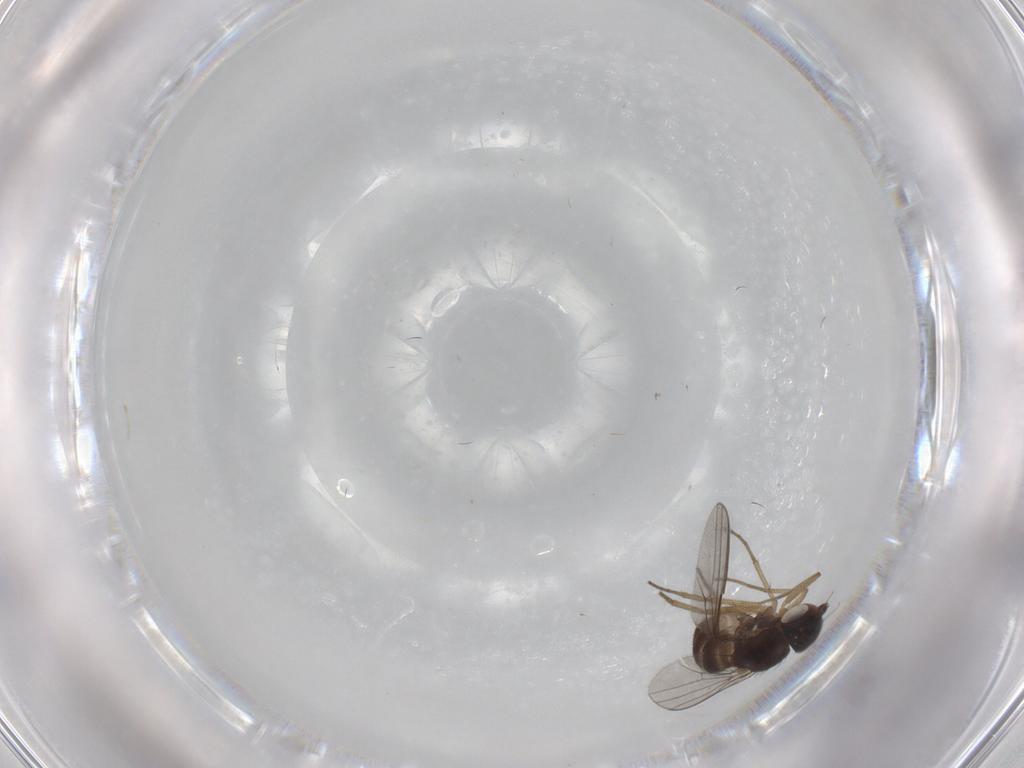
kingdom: Animalia
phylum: Arthropoda
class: Insecta
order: Diptera
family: Dolichopodidae
